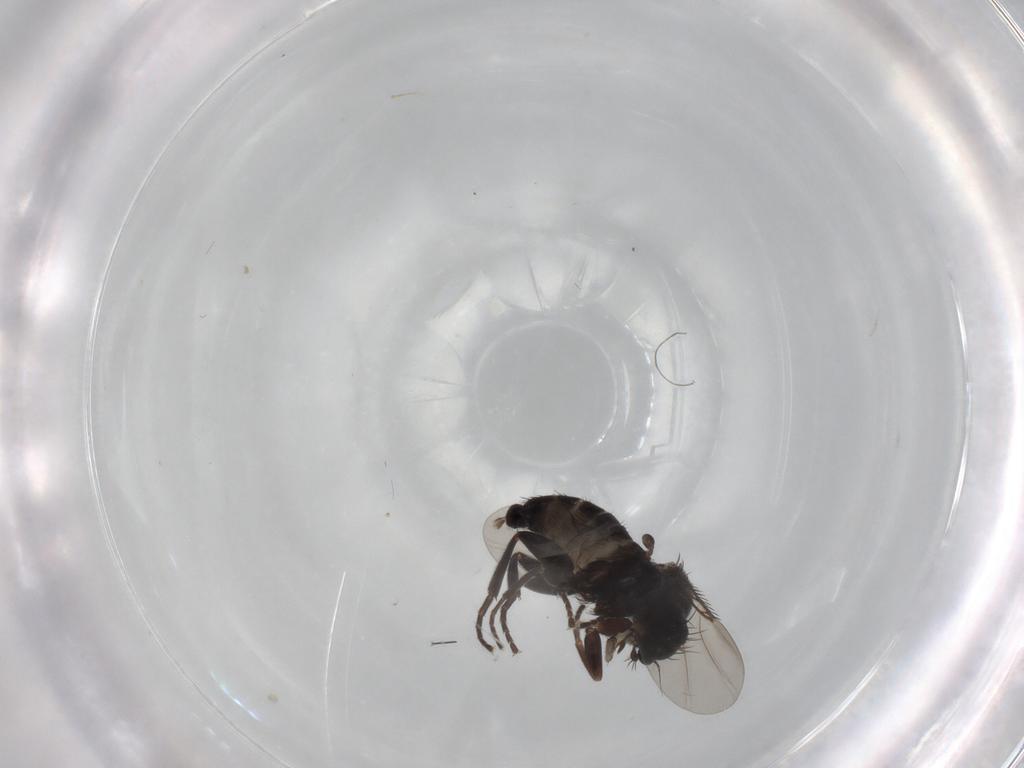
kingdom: Animalia
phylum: Arthropoda
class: Insecta
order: Diptera
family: Phoridae
